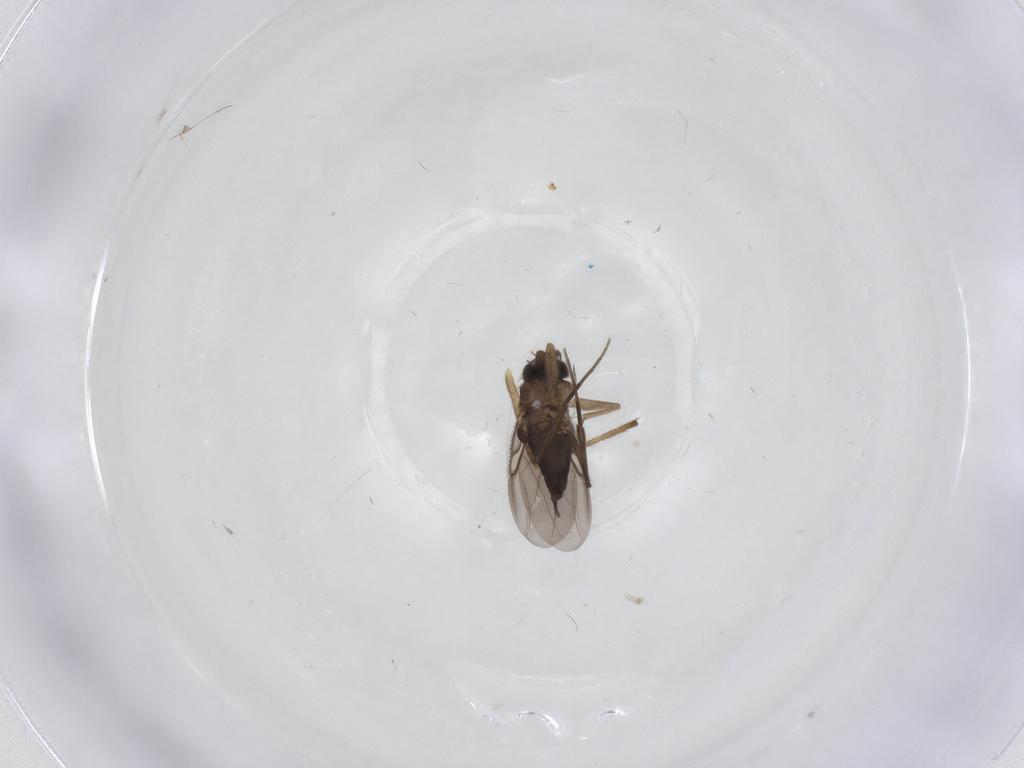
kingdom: Animalia
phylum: Arthropoda
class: Insecta
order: Diptera
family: Chironomidae
